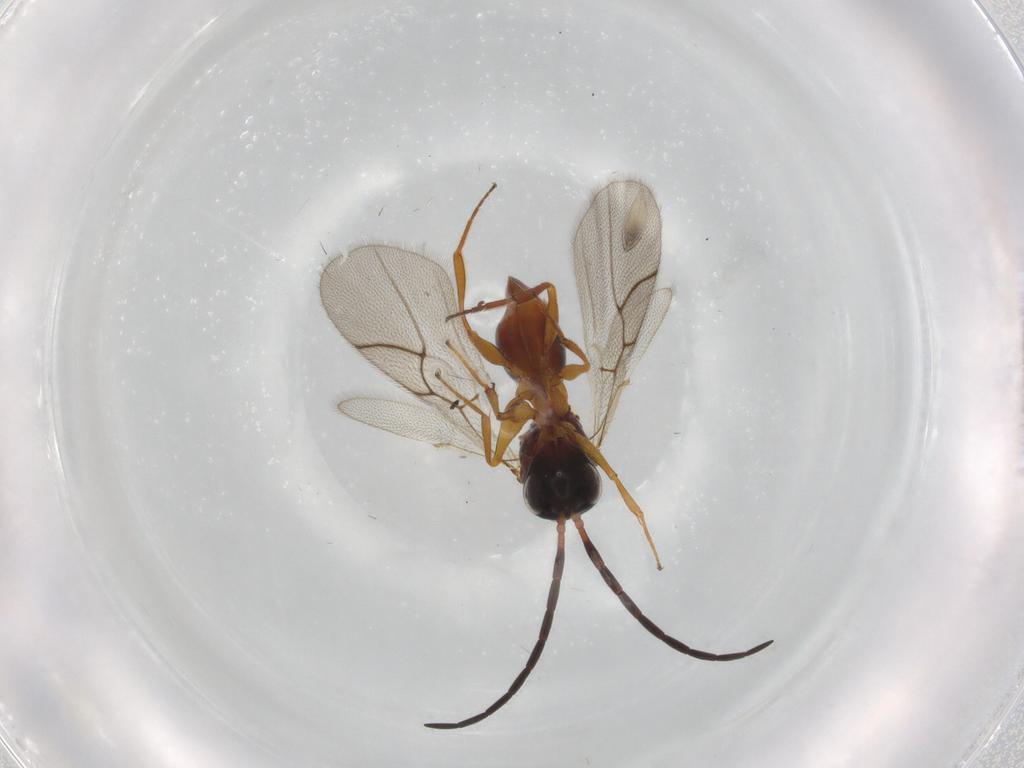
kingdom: Animalia
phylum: Arthropoda
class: Insecta
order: Hymenoptera
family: Figitidae
